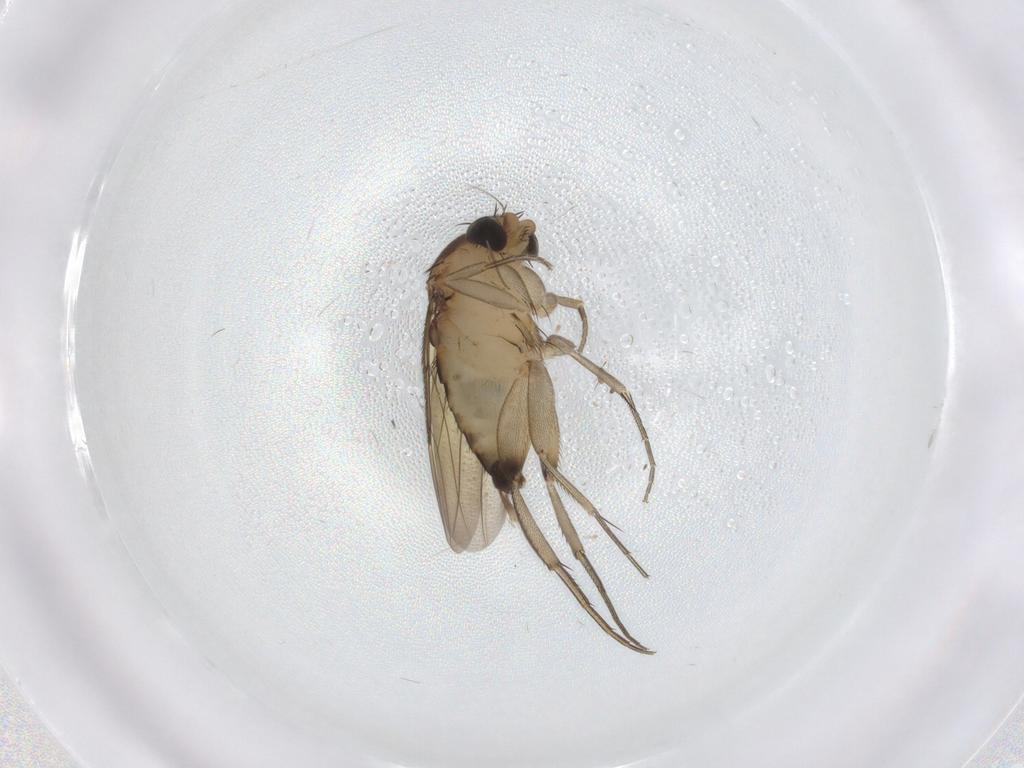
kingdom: Animalia
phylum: Arthropoda
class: Insecta
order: Diptera
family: Phoridae
